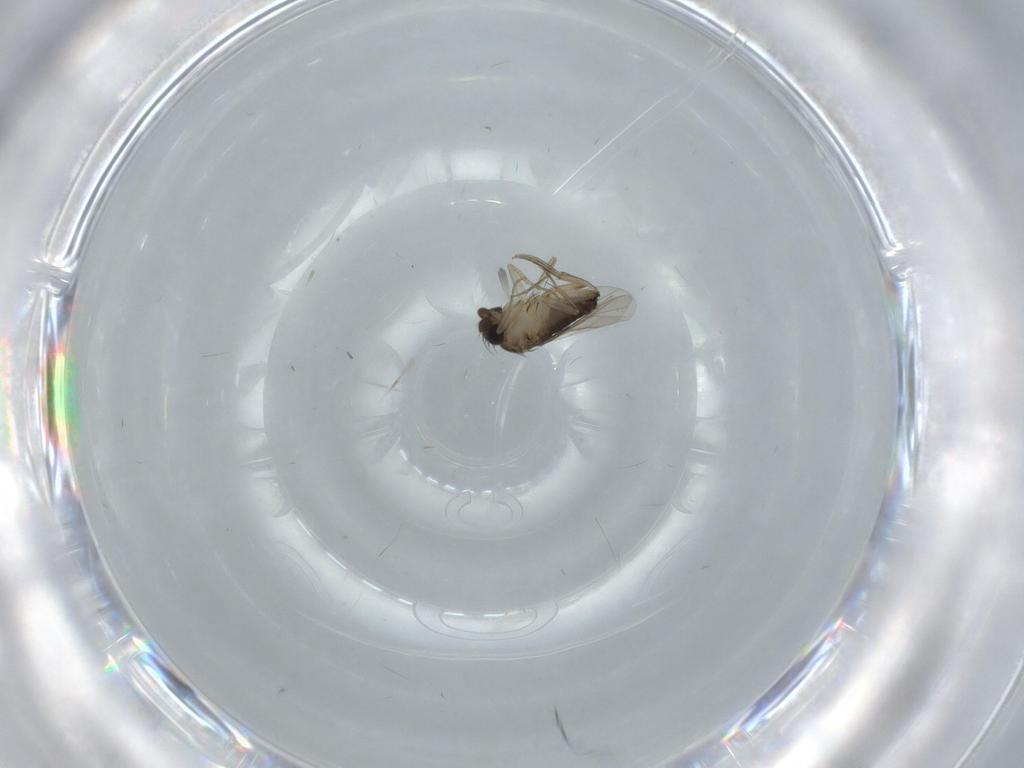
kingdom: Animalia
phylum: Arthropoda
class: Insecta
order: Diptera
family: Phoridae
